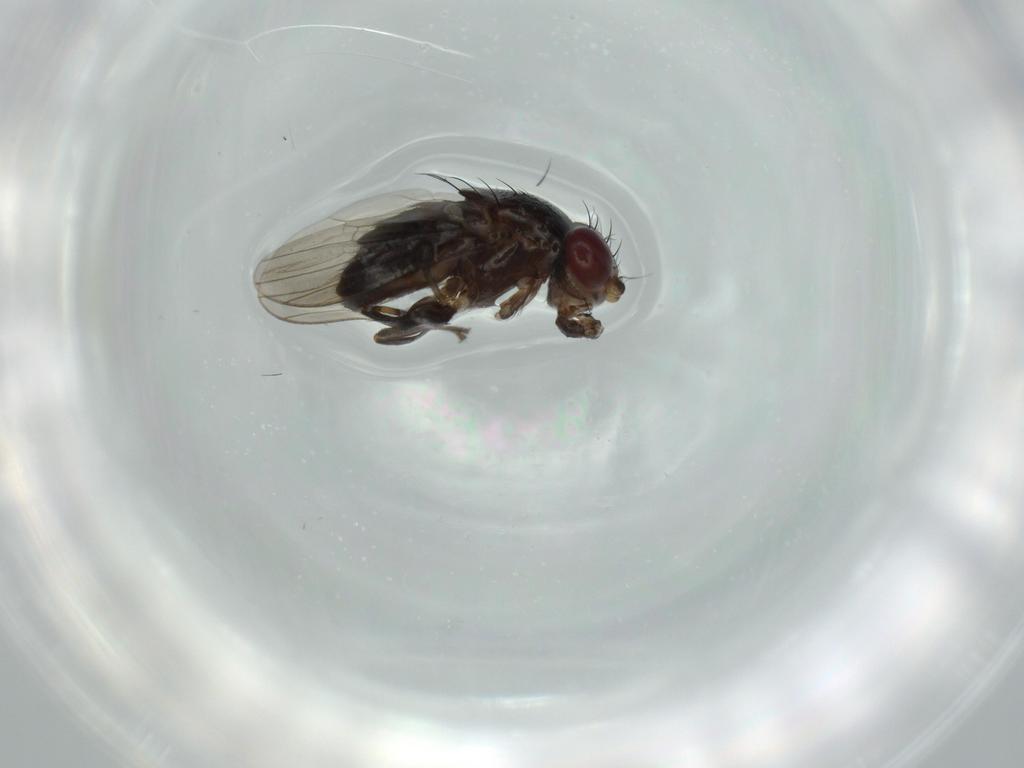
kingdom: Animalia
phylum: Arthropoda
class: Insecta
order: Diptera
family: Heleomyzidae
